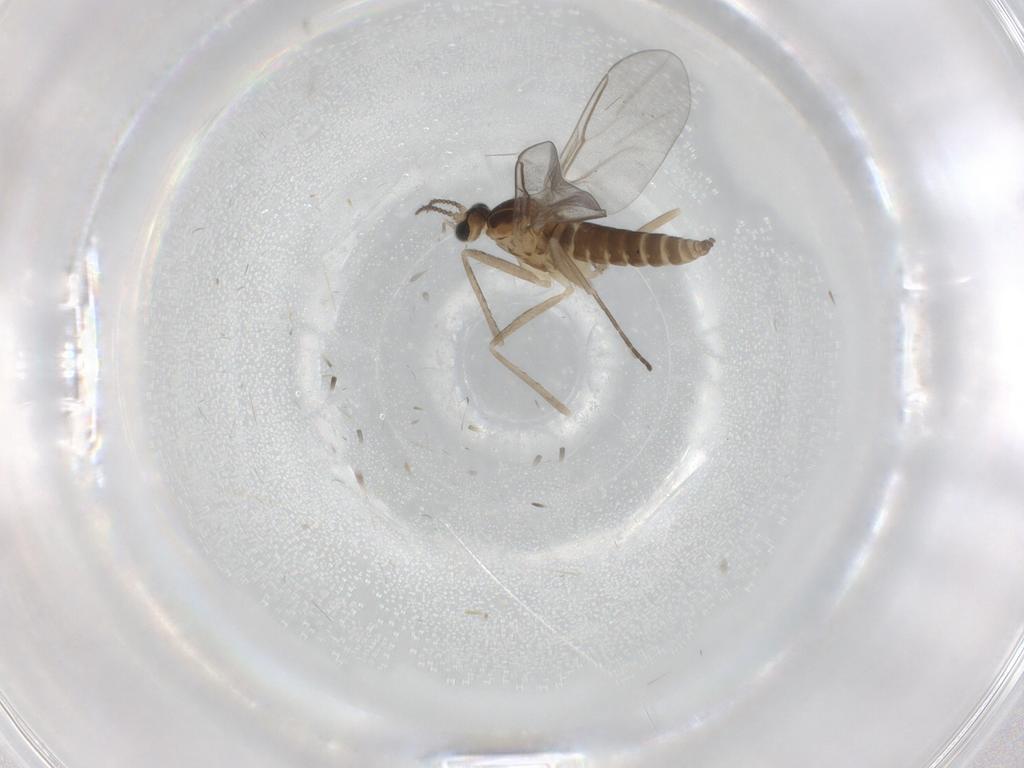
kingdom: Animalia
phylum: Arthropoda
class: Insecta
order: Diptera
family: Cecidomyiidae
